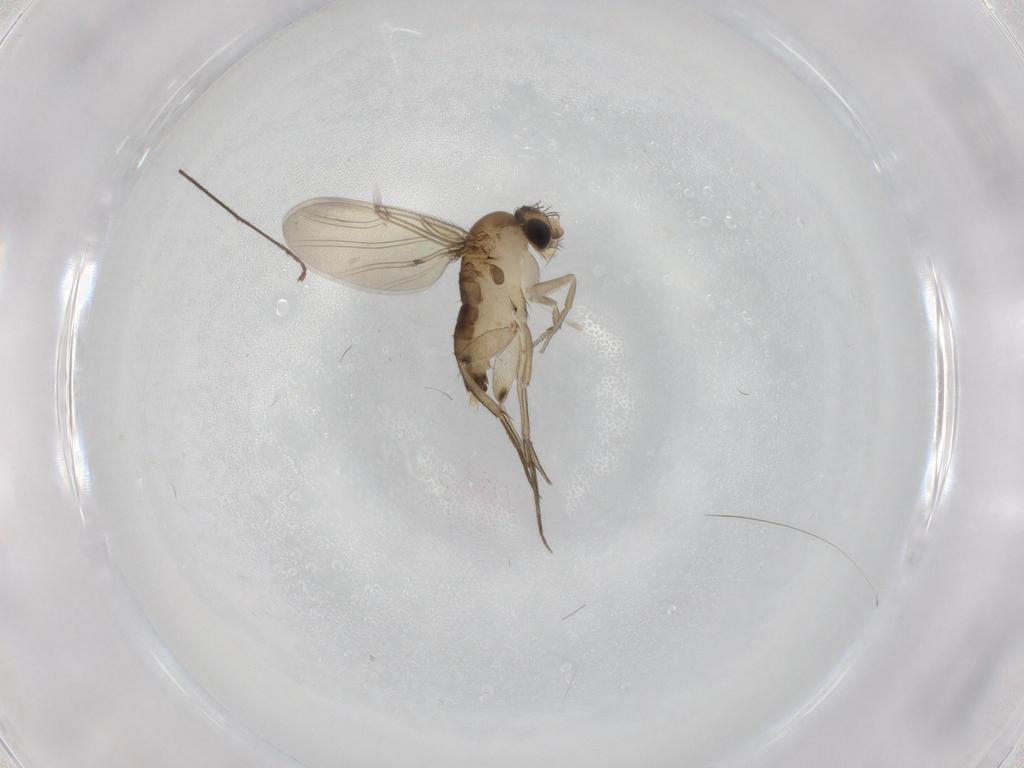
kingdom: Animalia
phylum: Arthropoda
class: Insecta
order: Diptera
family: Phoridae
